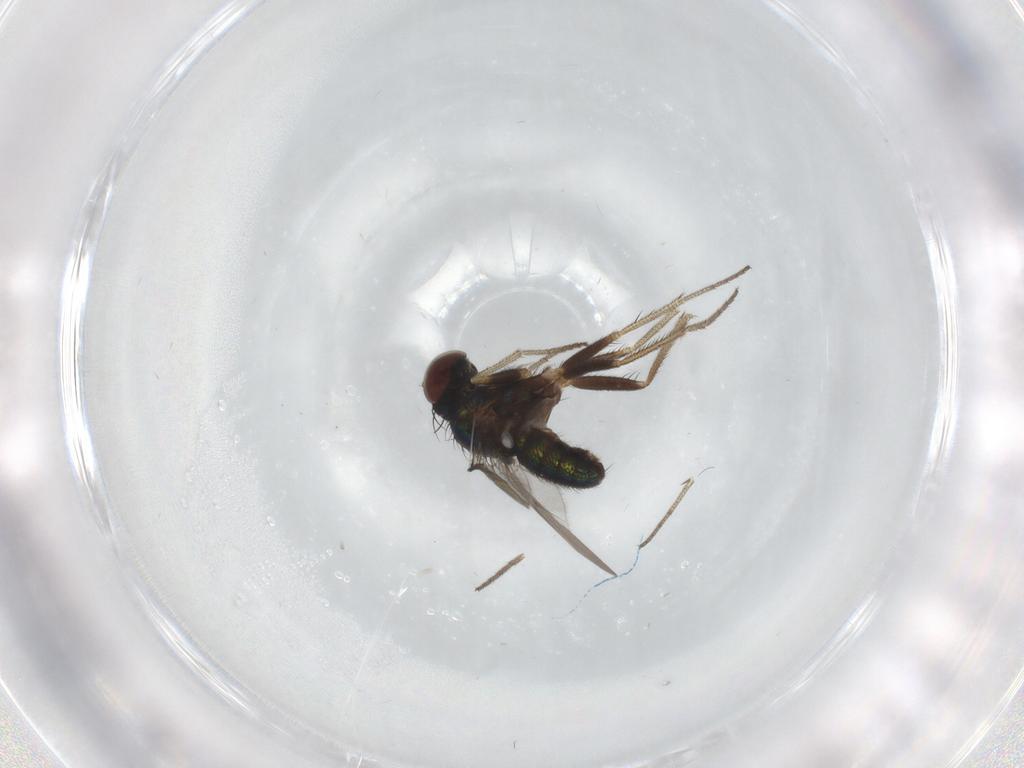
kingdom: Animalia
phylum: Arthropoda
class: Insecta
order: Diptera
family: Dolichopodidae
